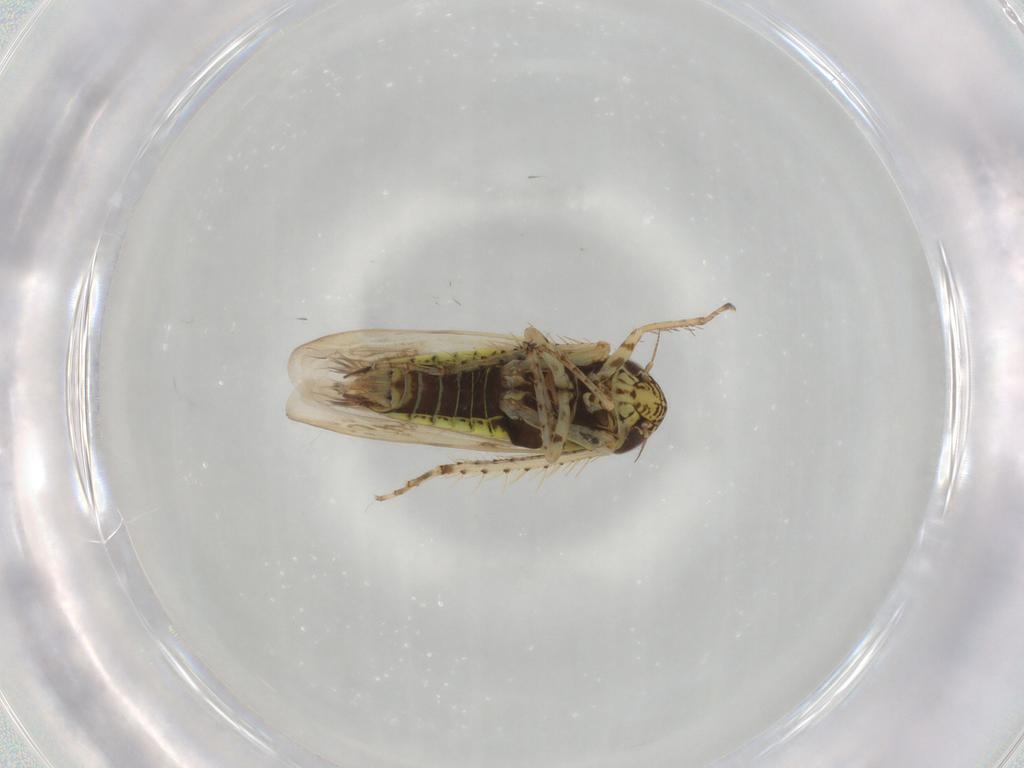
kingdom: Animalia
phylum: Arthropoda
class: Insecta
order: Hemiptera
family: Cicadellidae
